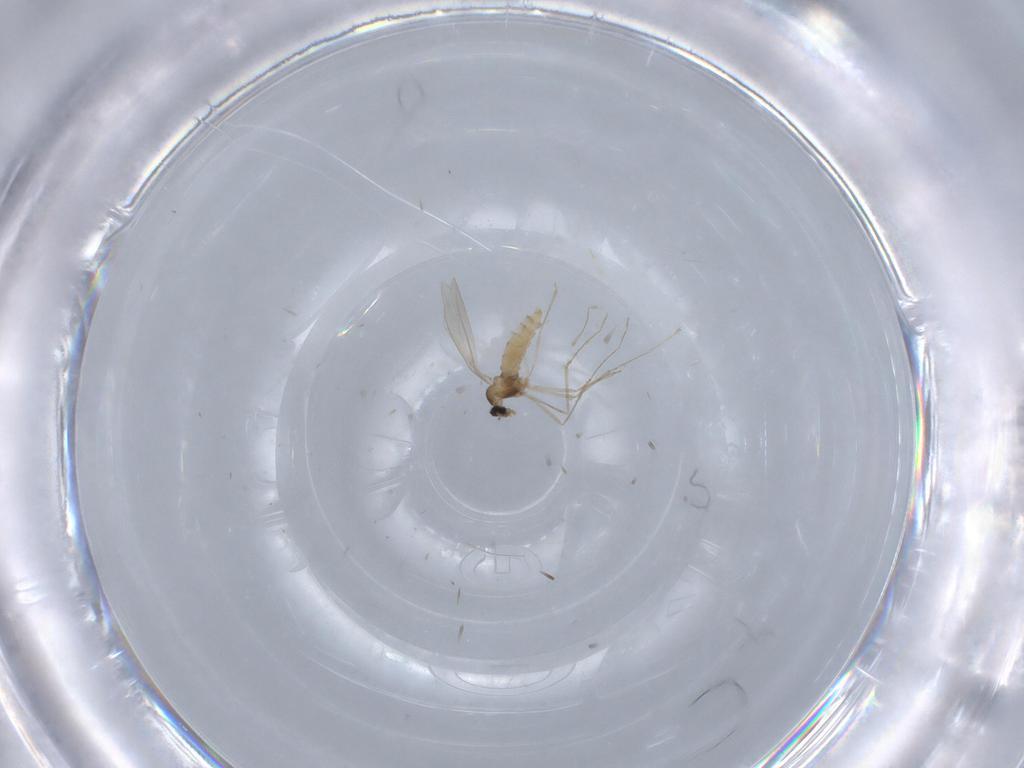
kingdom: Animalia
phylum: Arthropoda
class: Insecta
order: Diptera
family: Cecidomyiidae
